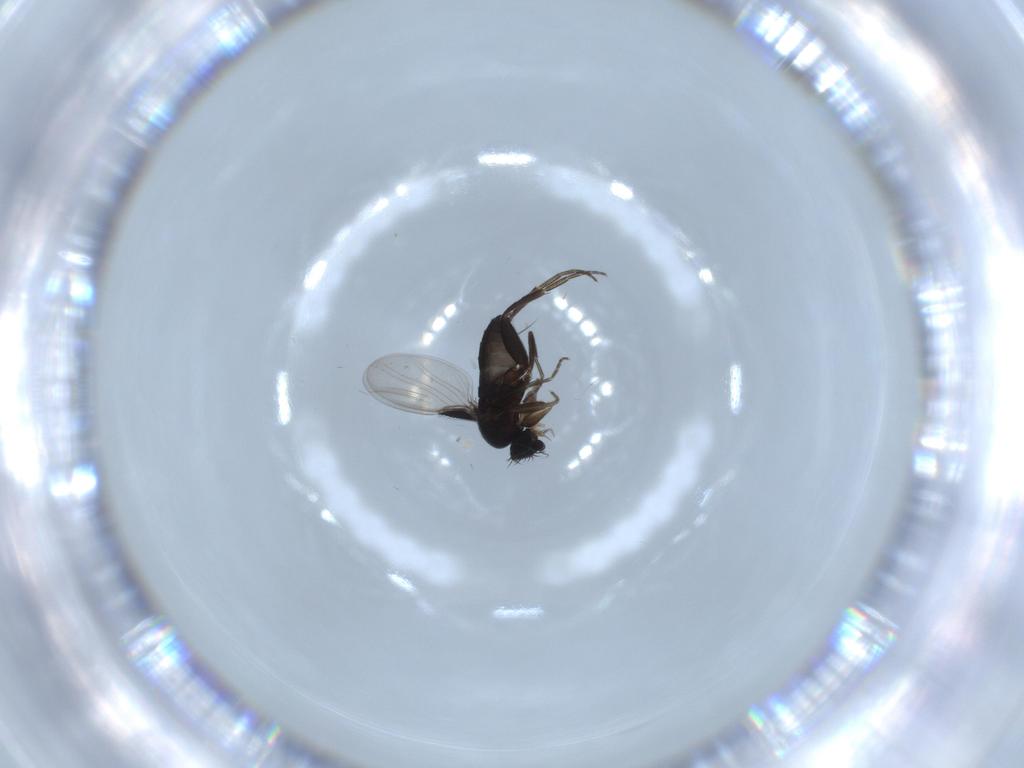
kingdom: Animalia
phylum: Arthropoda
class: Insecta
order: Diptera
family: Phoridae
